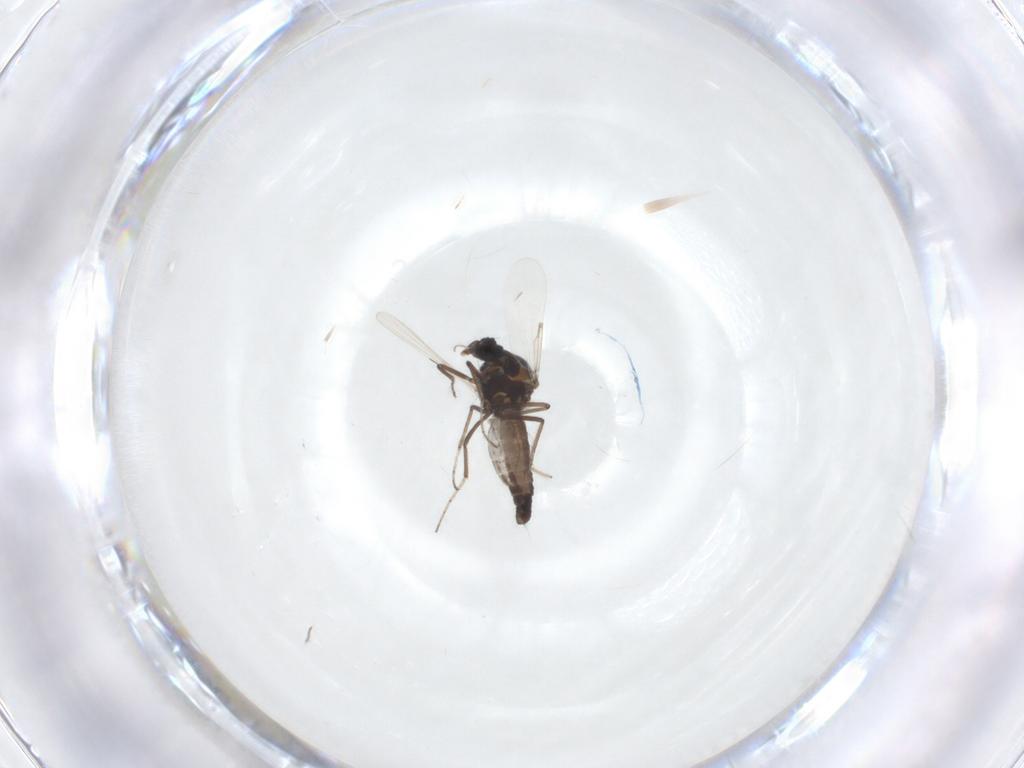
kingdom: Animalia
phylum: Arthropoda
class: Insecta
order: Diptera
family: Ceratopogonidae
